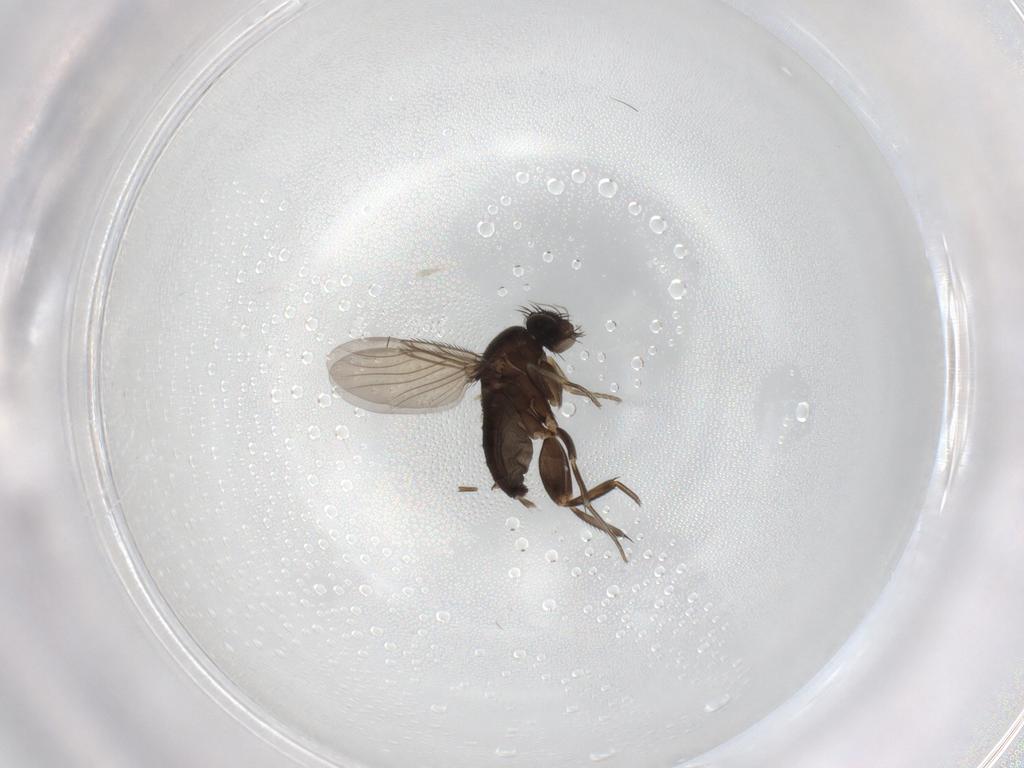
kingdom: Animalia
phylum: Arthropoda
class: Insecta
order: Diptera
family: Phoridae
